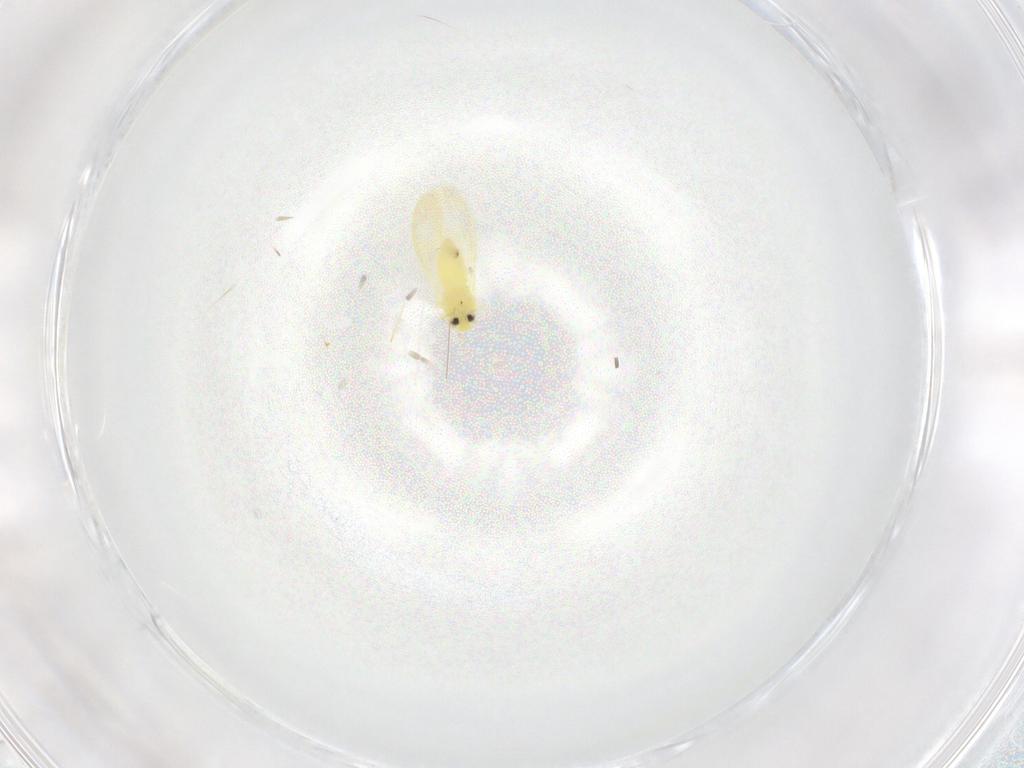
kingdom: Animalia
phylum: Arthropoda
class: Insecta
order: Hemiptera
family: Aleyrodidae
